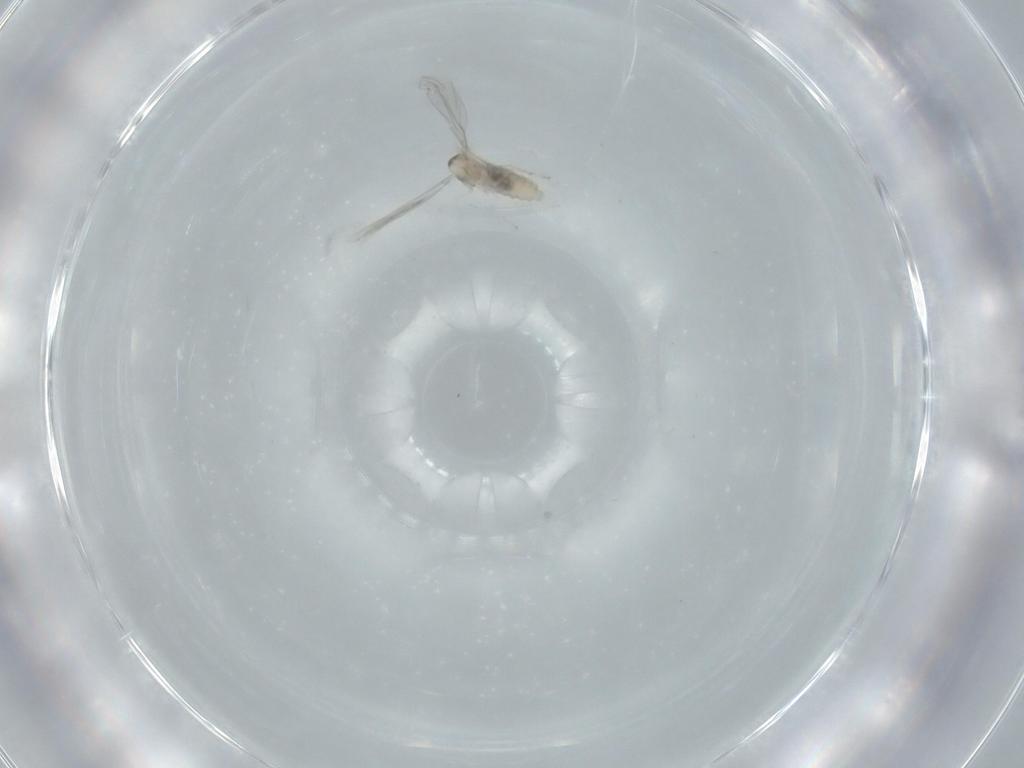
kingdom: Animalia
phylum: Arthropoda
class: Insecta
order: Diptera
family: Cecidomyiidae
